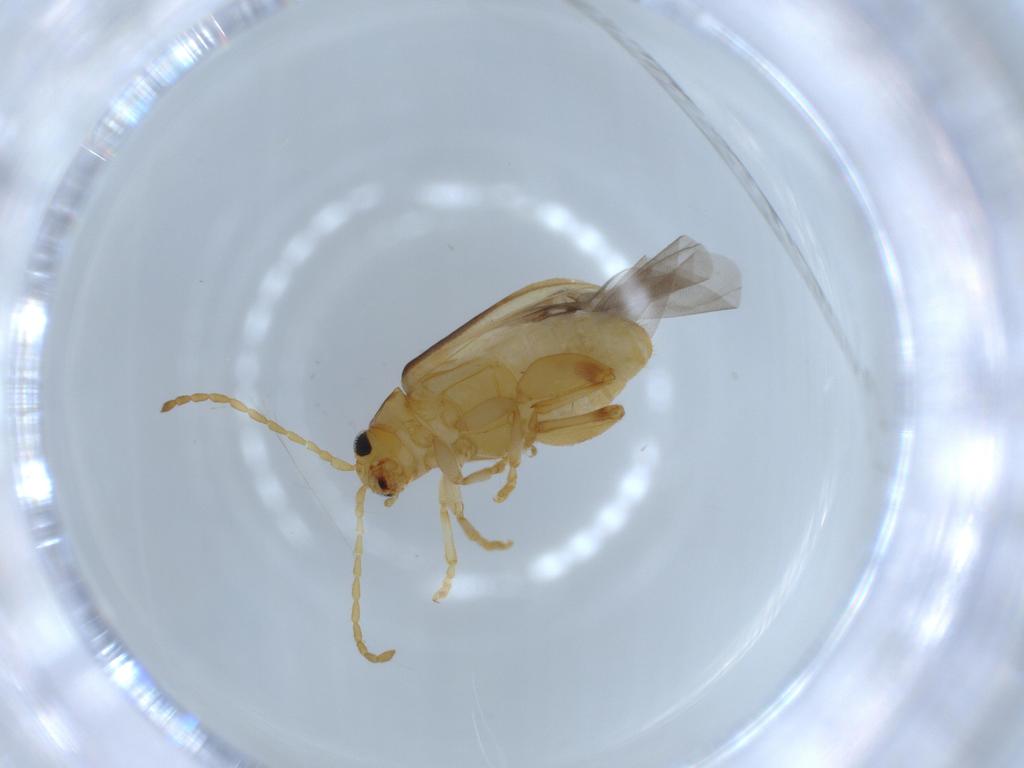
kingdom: Animalia
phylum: Arthropoda
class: Insecta
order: Coleoptera
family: Chrysomelidae
